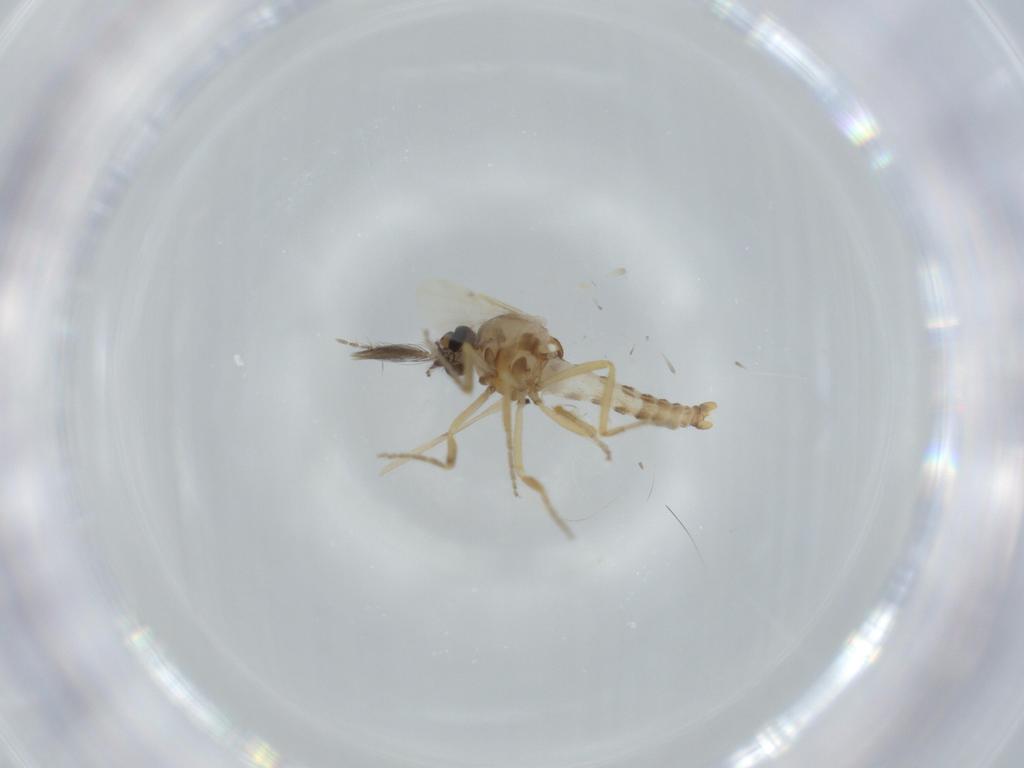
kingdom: Animalia
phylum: Arthropoda
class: Insecta
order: Diptera
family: Ceratopogonidae
